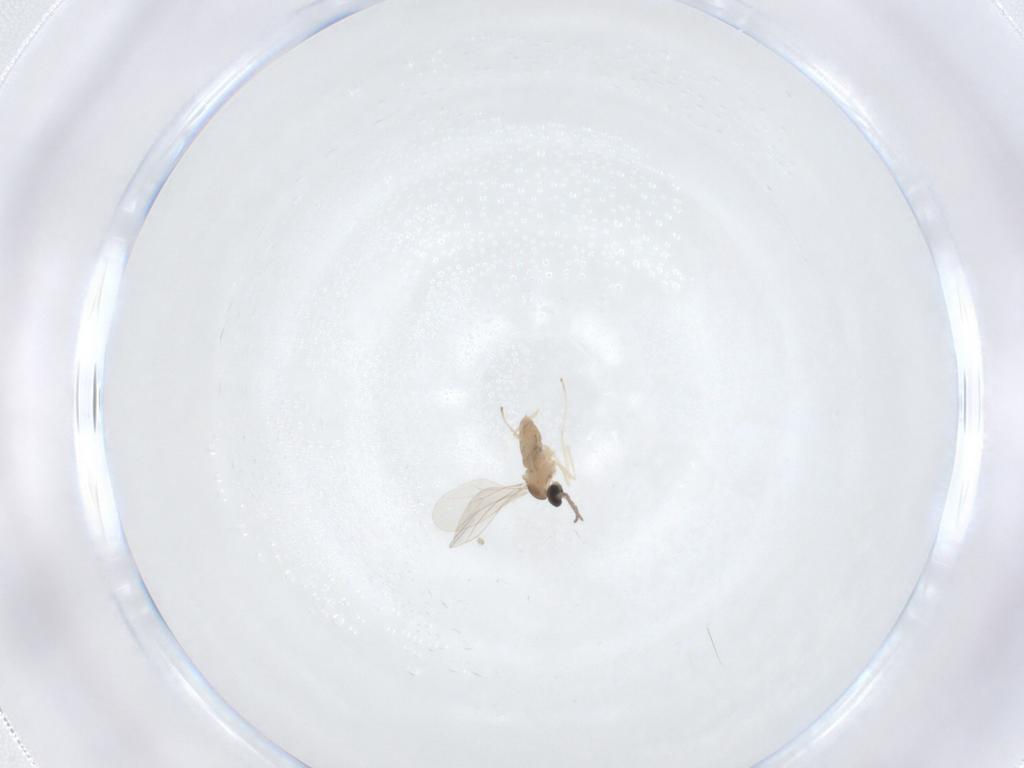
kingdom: Animalia
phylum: Arthropoda
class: Insecta
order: Diptera
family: Cecidomyiidae
